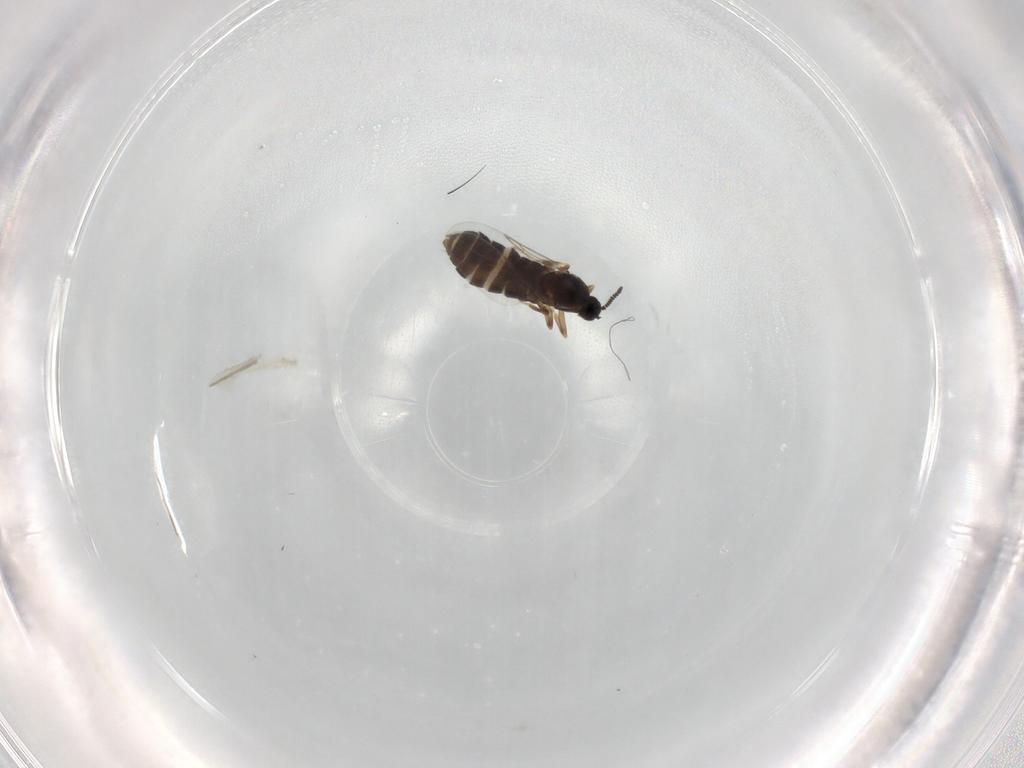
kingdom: Animalia
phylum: Arthropoda
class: Insecta
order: Diptera
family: Scatopsidae
